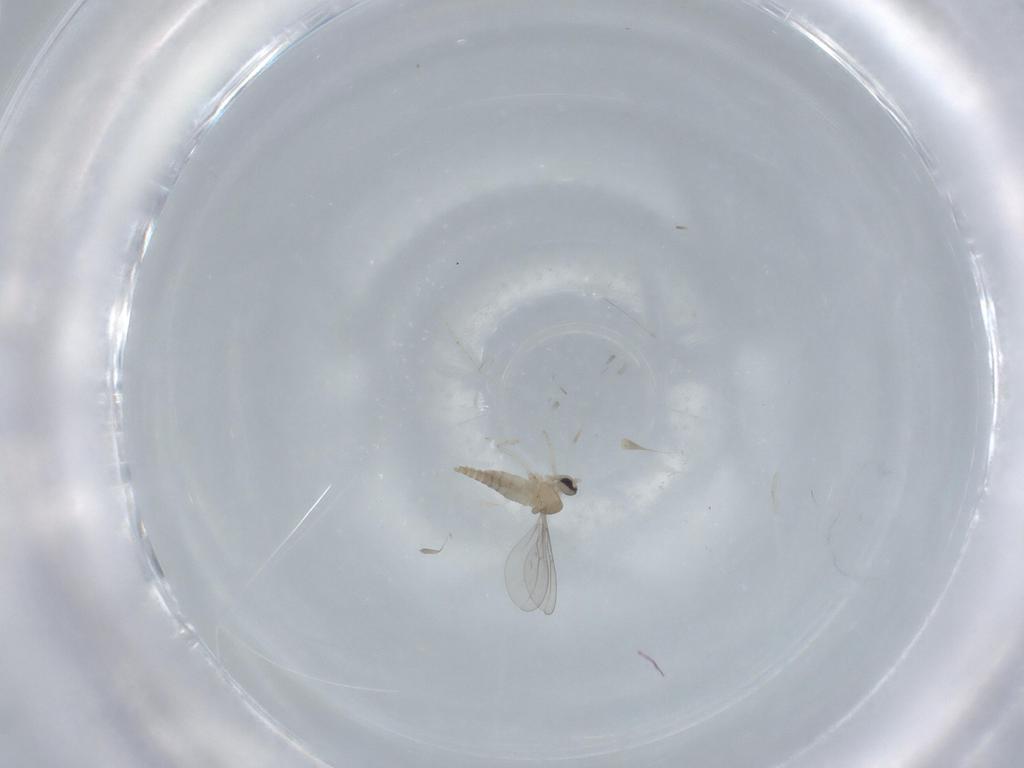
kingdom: Animalia
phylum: Arthropoda
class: Insecta
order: Diptera
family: Cecidomyiidae
